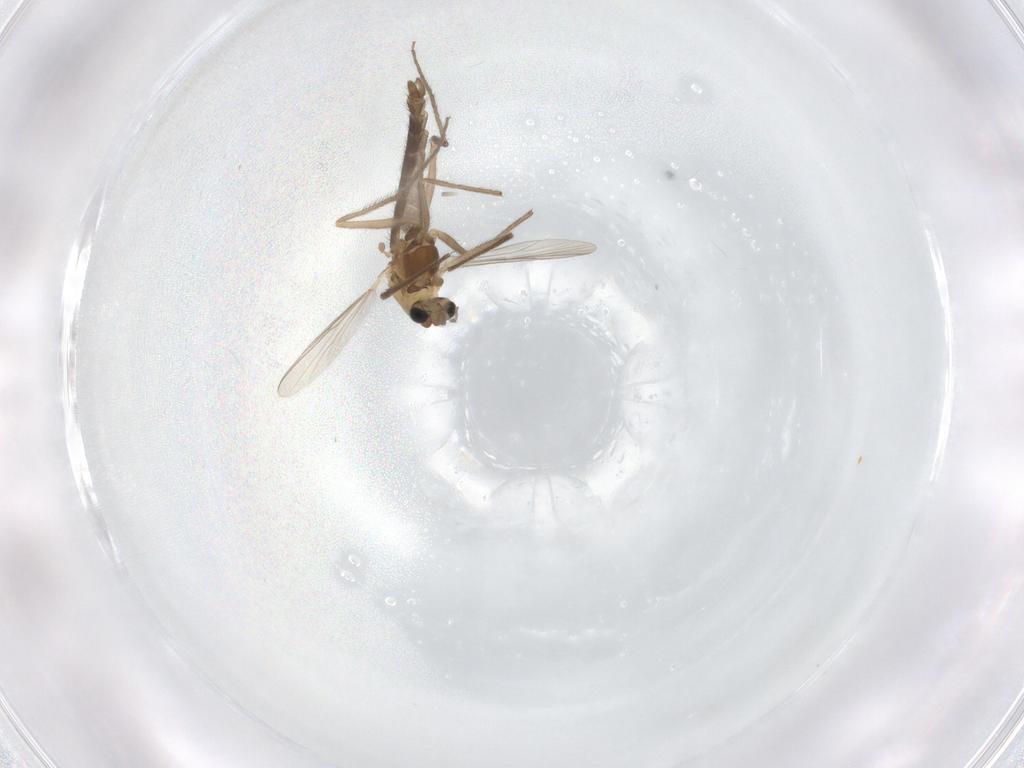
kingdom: Animalia
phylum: Arthropoda
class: Insecta
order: Diptera
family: Chironomidae
